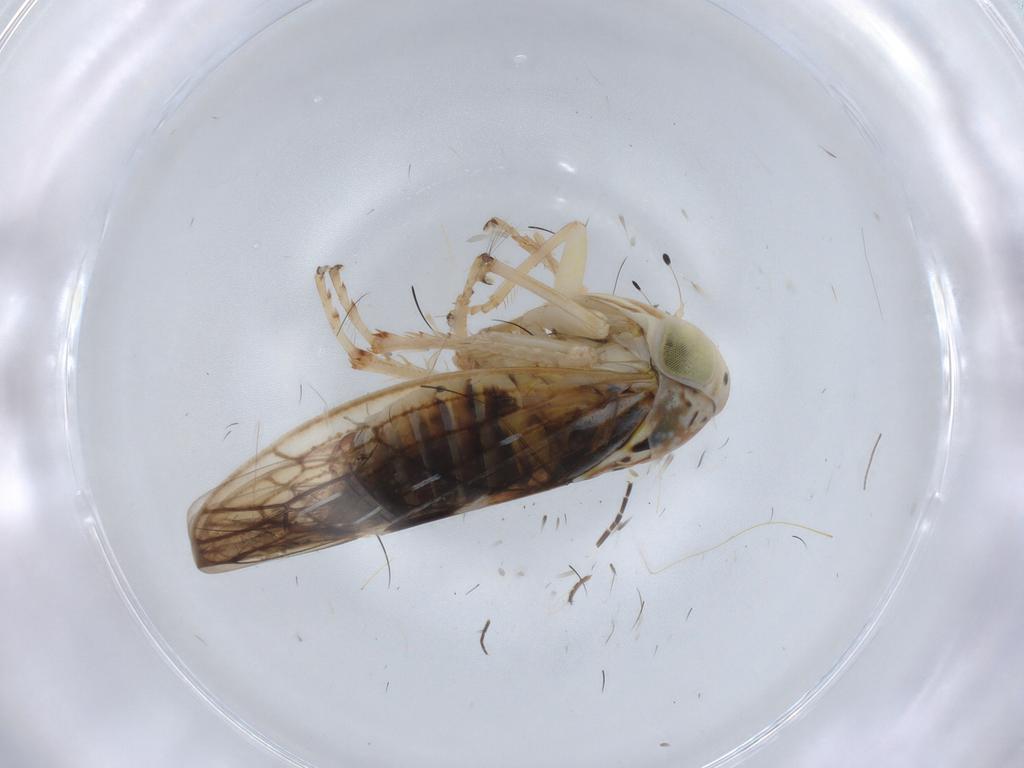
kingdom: Animalia
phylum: Arthropoda
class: Insecta
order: Hemiptera
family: Cicadellidae
